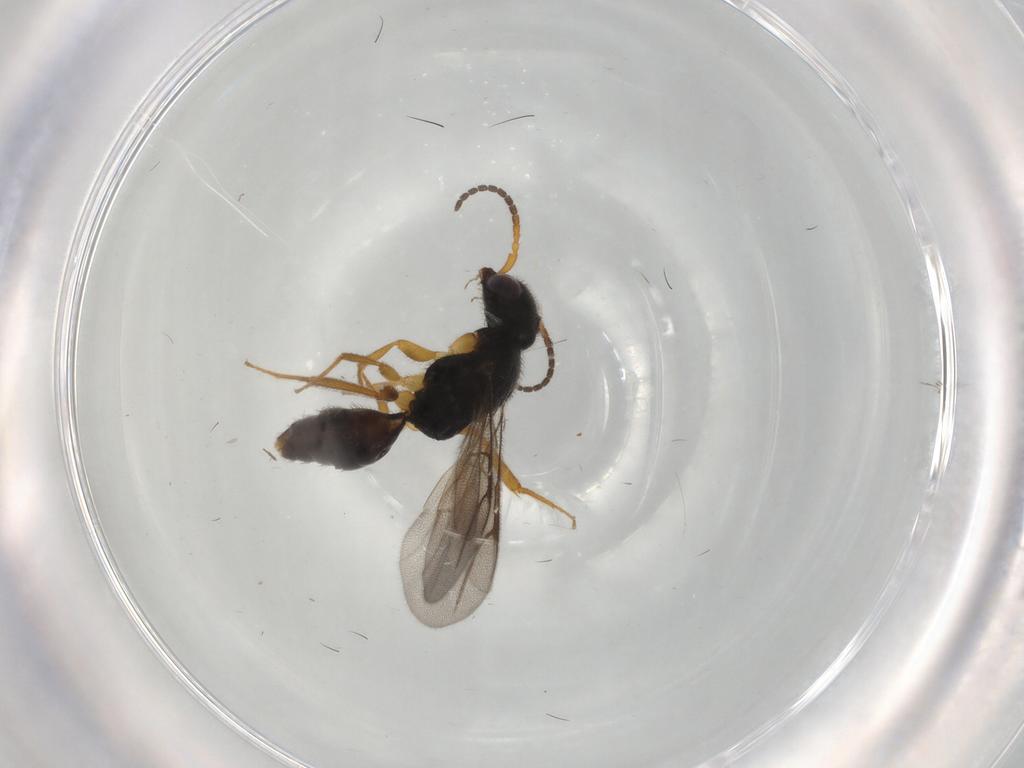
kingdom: Animalia
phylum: Arthropoda
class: Insecta
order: Hymenoptera
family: Bethylidae
